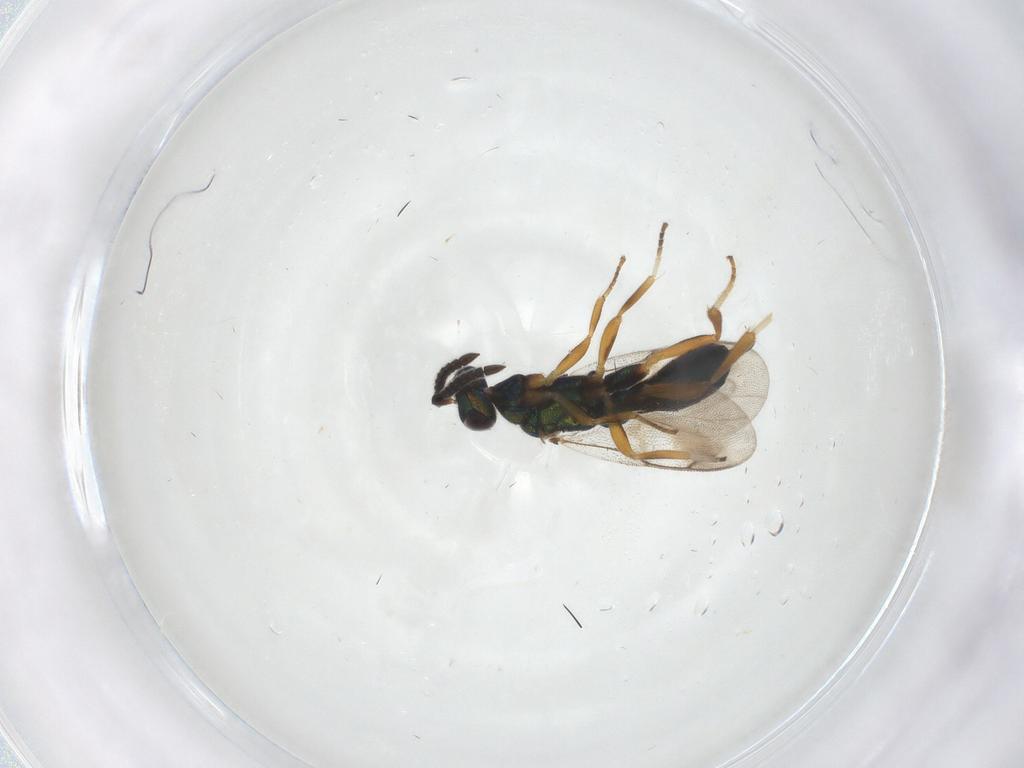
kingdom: Animalia
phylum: Arthropoda
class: Insecta
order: Hymenoptera
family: Cleonyminae
